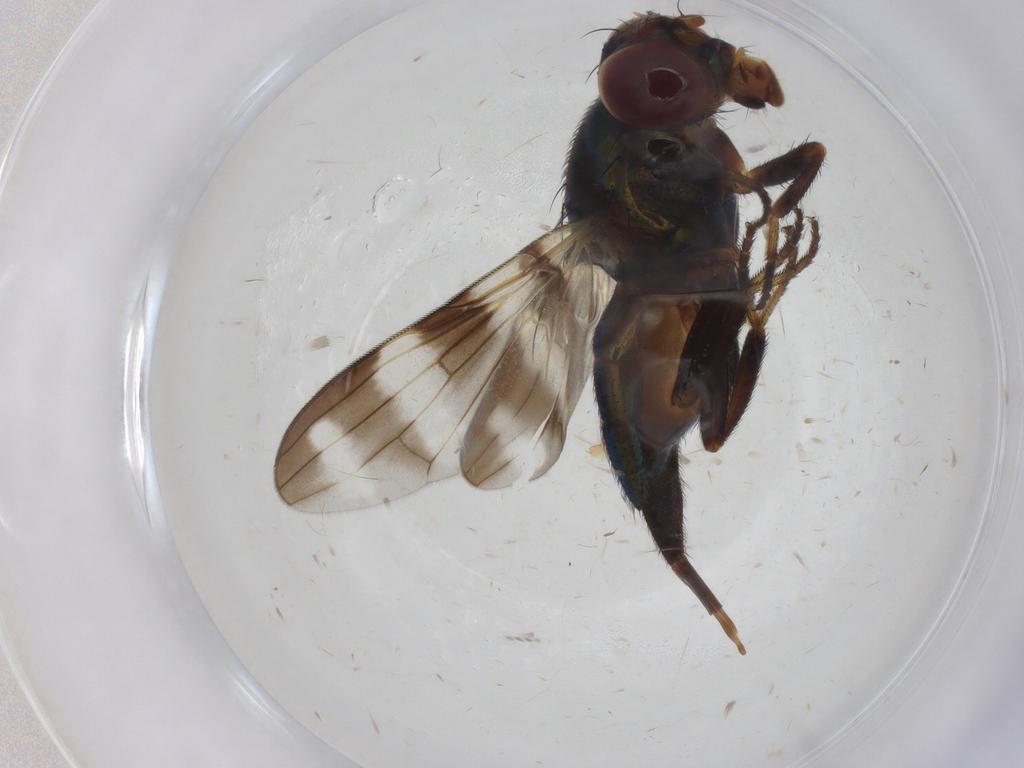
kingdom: Animalia
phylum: Arthropoda
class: Insecta
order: Diptera
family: Ulidiidae
